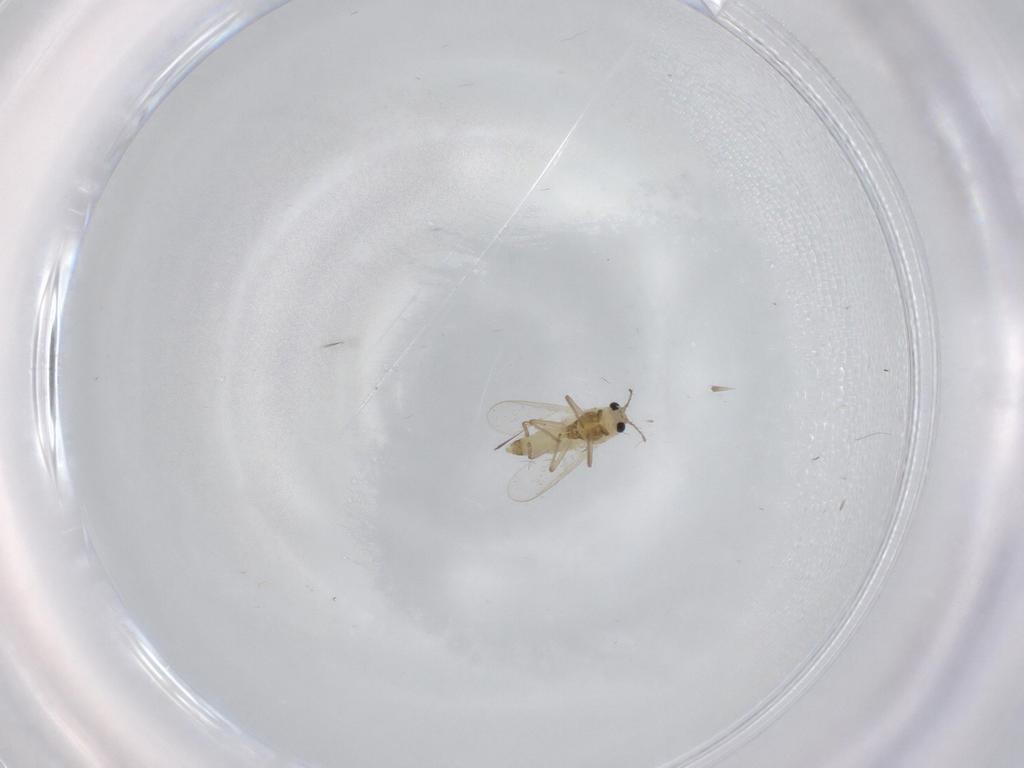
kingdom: Animalia
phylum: Arthropoda
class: Insecta
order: Diptera
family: Chironomidae
